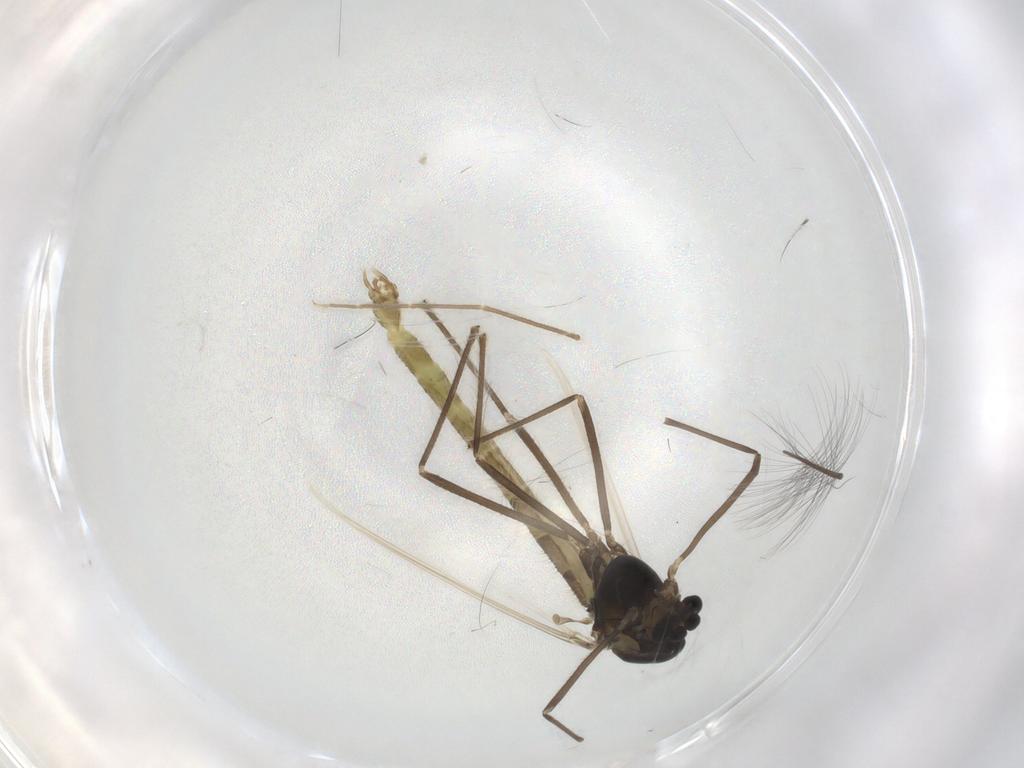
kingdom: Animalia
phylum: Arthropoda
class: Insecta
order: Diptera
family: Chironomidae
